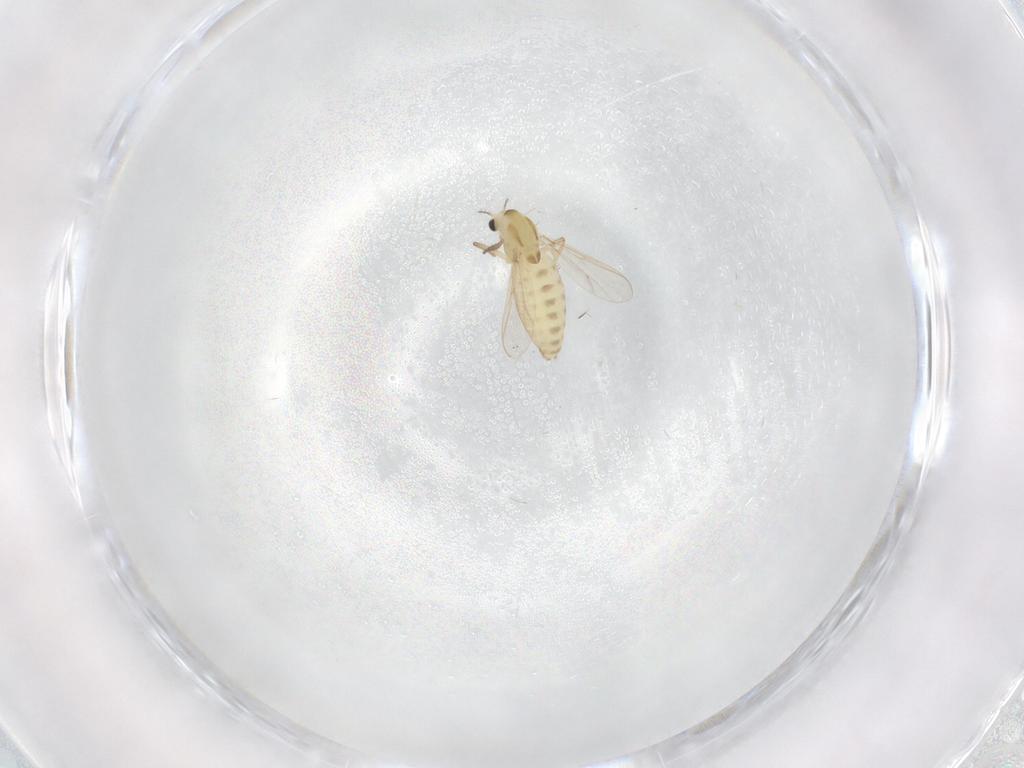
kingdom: Animalia
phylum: Arthropoda
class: Insecta
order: Diptera
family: Chironomidae
